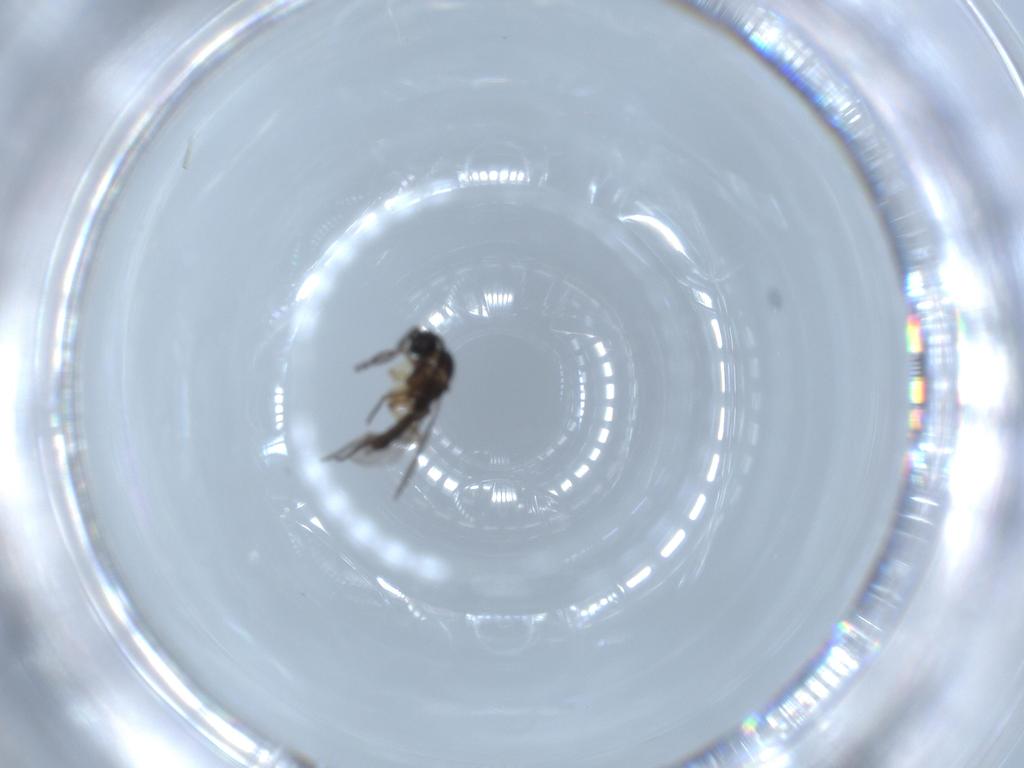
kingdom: Animalia
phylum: Arthropoda
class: Insecta
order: Diptera
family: Sciaridae
